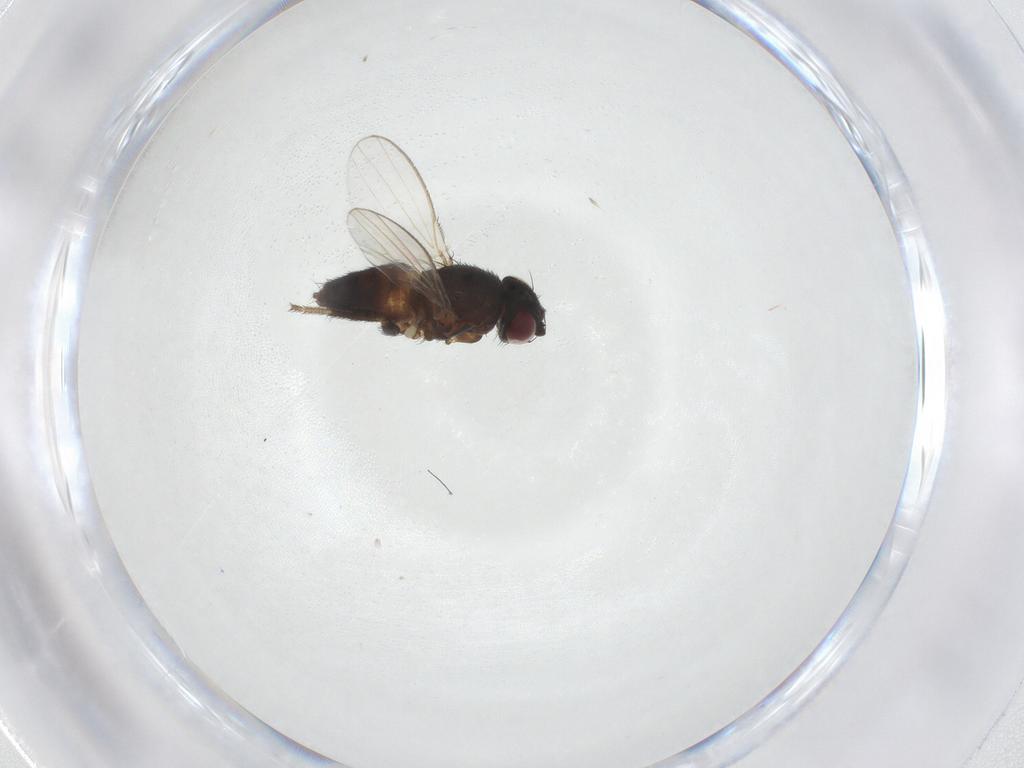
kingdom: Animalia
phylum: Arthropoda
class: Insecta
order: Diptera
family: Milichiidae
